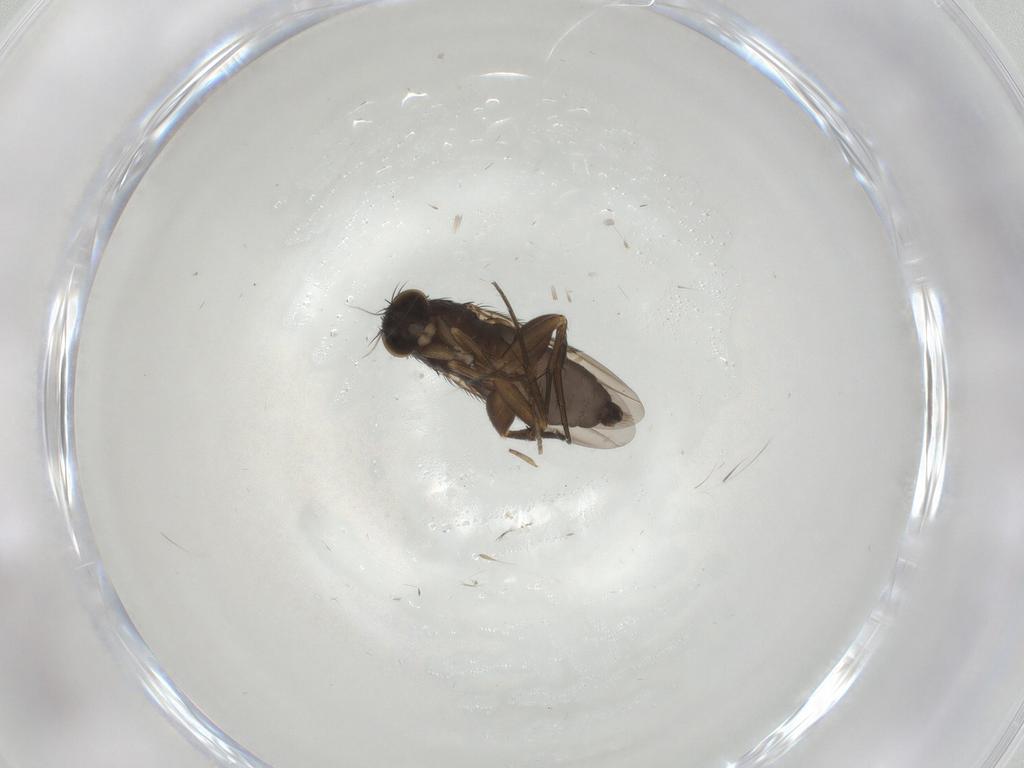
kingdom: Animalia
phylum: Arthropoda
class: Insecta
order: Diptera
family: Phoridae
